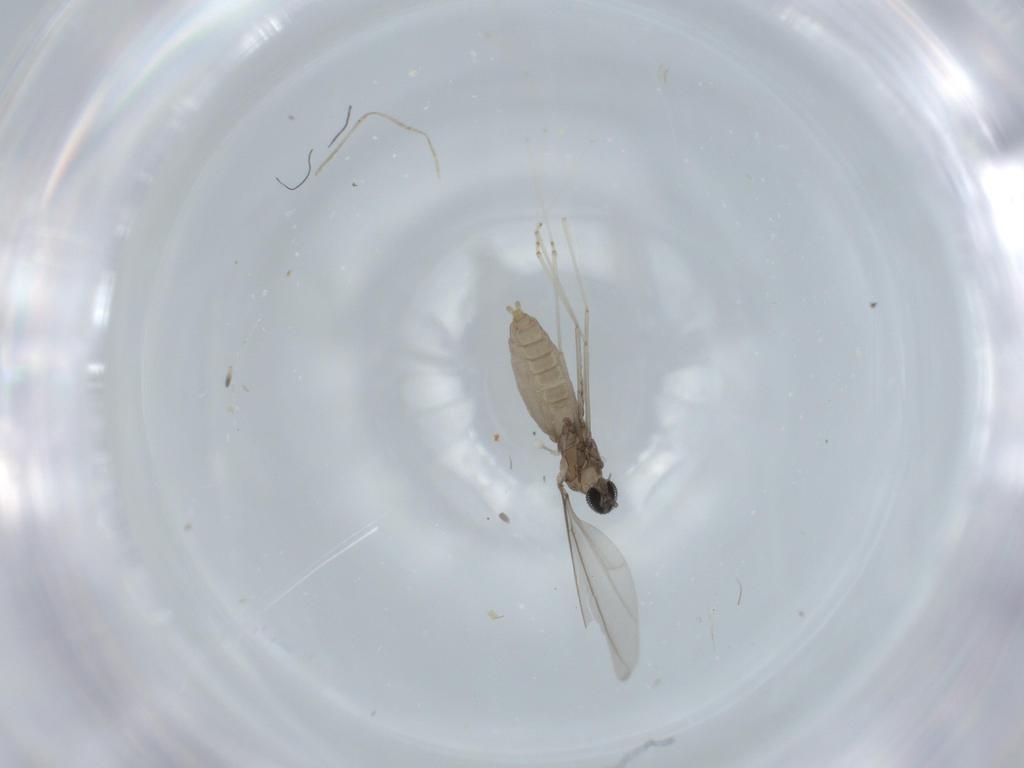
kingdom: Animalia
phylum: Arthropoda
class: Insecta
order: Diptera
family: Cecidomyiidae
